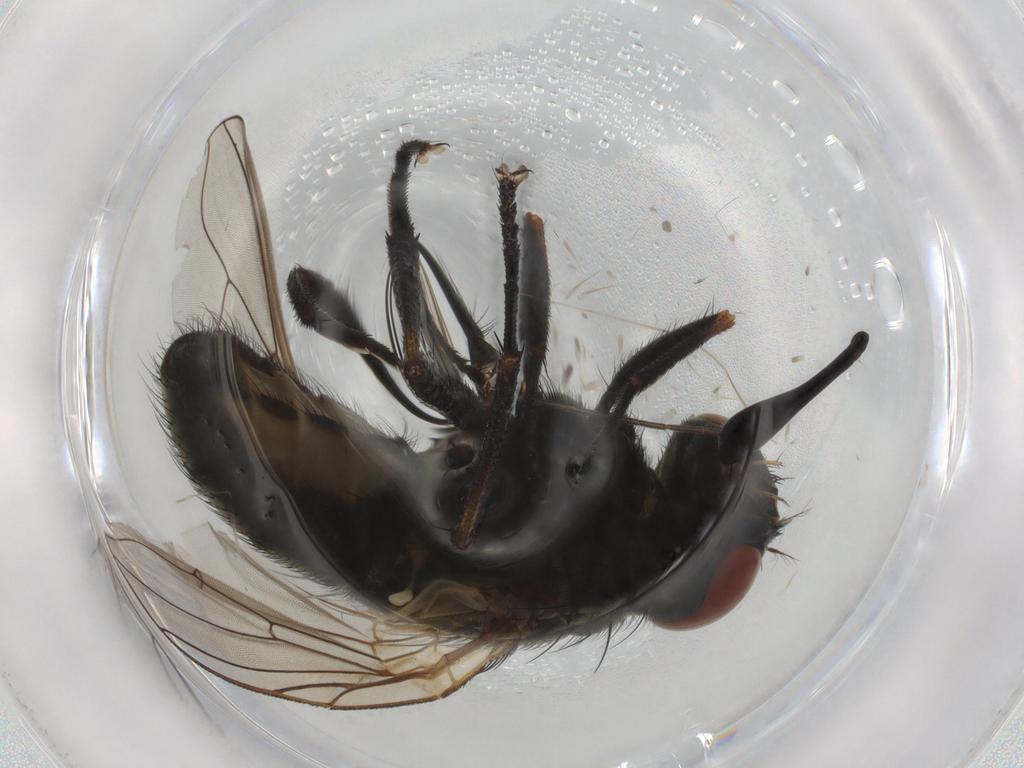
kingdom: Animalia
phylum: Arthropoda
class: Insecta
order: Diptera
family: Muscidae
